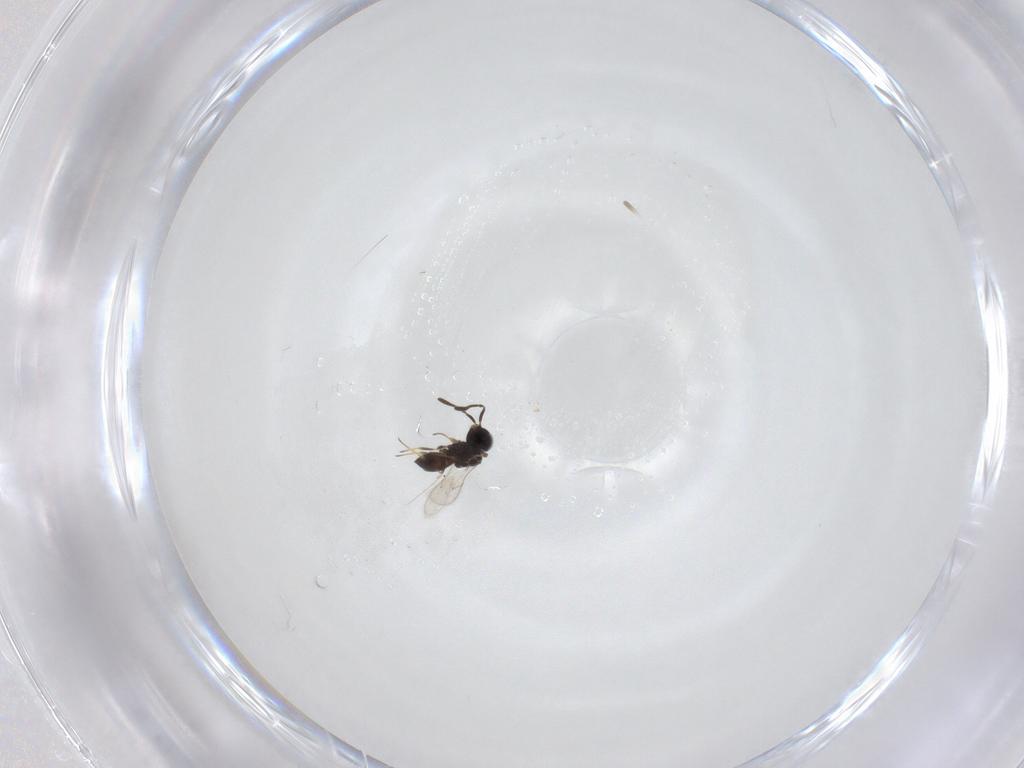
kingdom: Animalia
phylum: Arthropoda
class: Insecta
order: Hymenoptera
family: Scelionidae
